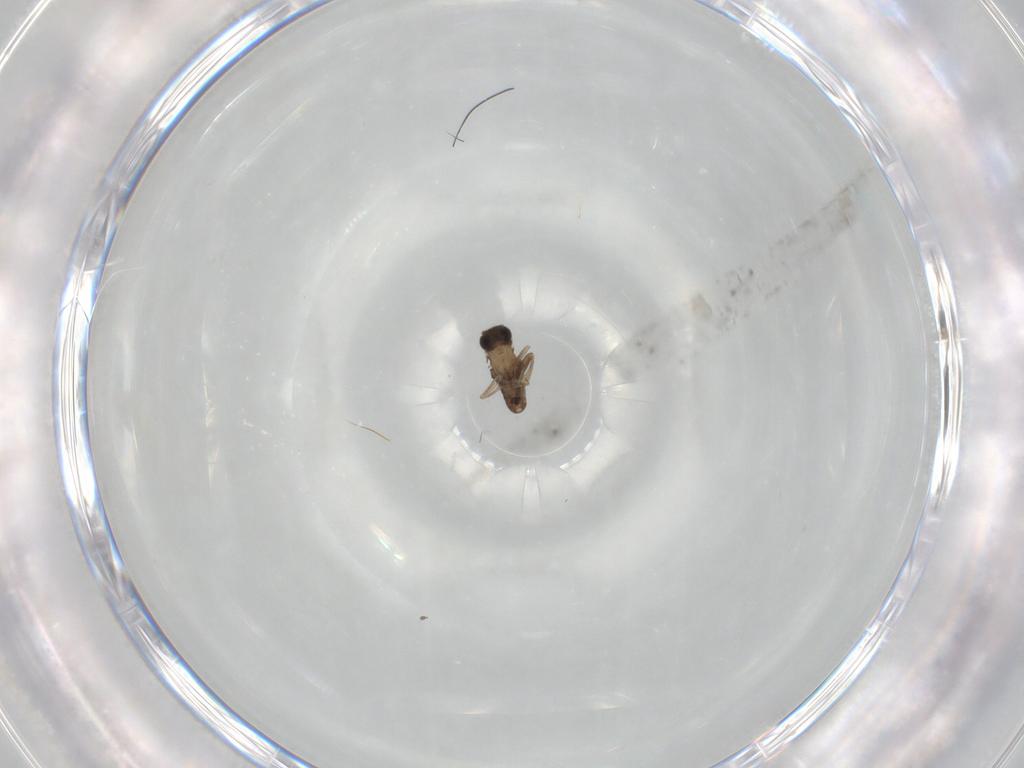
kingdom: Animalia
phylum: Arthropoda
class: Insecta
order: Diptera
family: Phoridae
